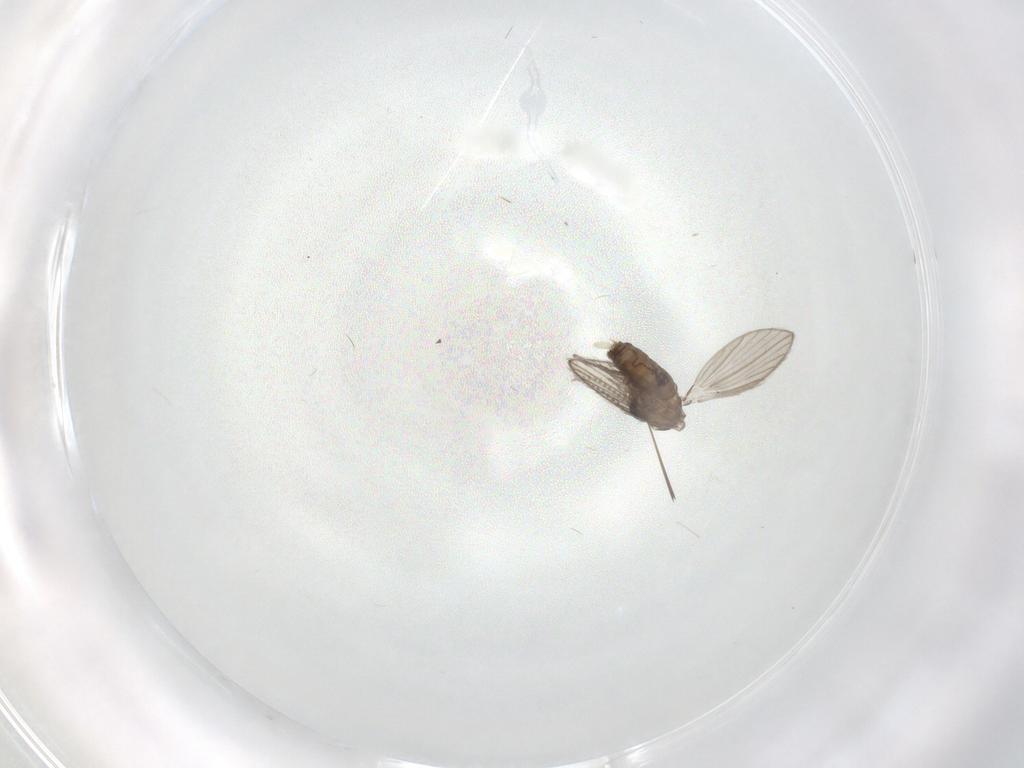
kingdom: Animalia
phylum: Arthropoda
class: Insecta
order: Diptera
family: Psychodidae
